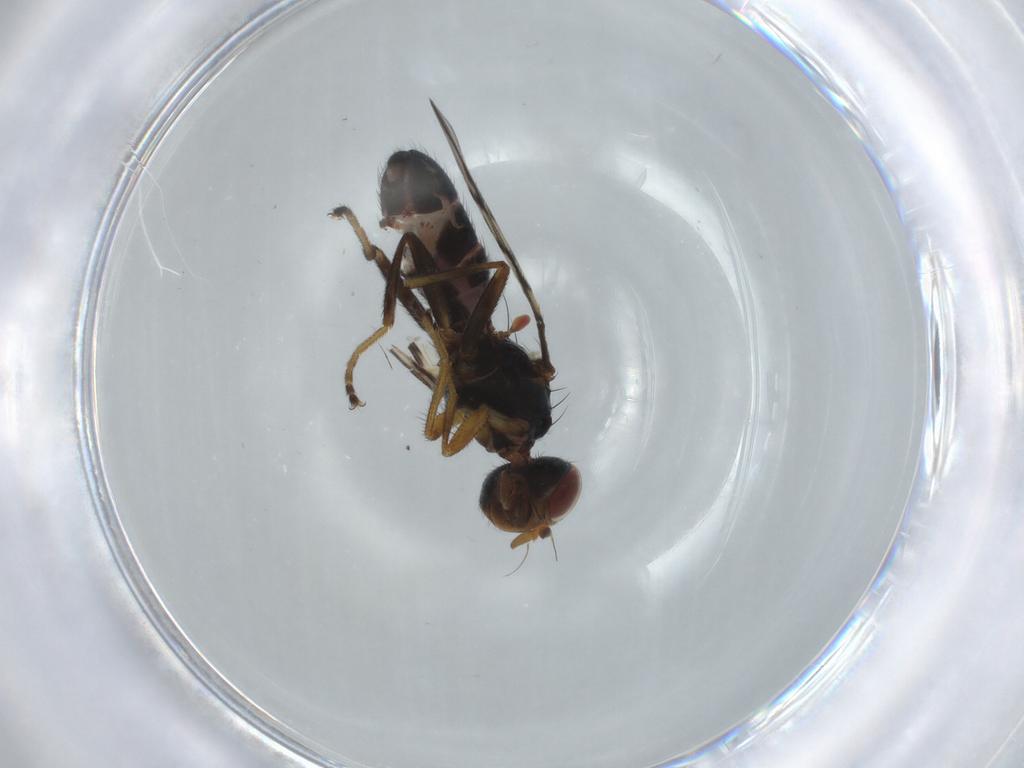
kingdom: Animalia
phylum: Arthropoda
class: Insecta
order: Diptera
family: Platystomatidae
